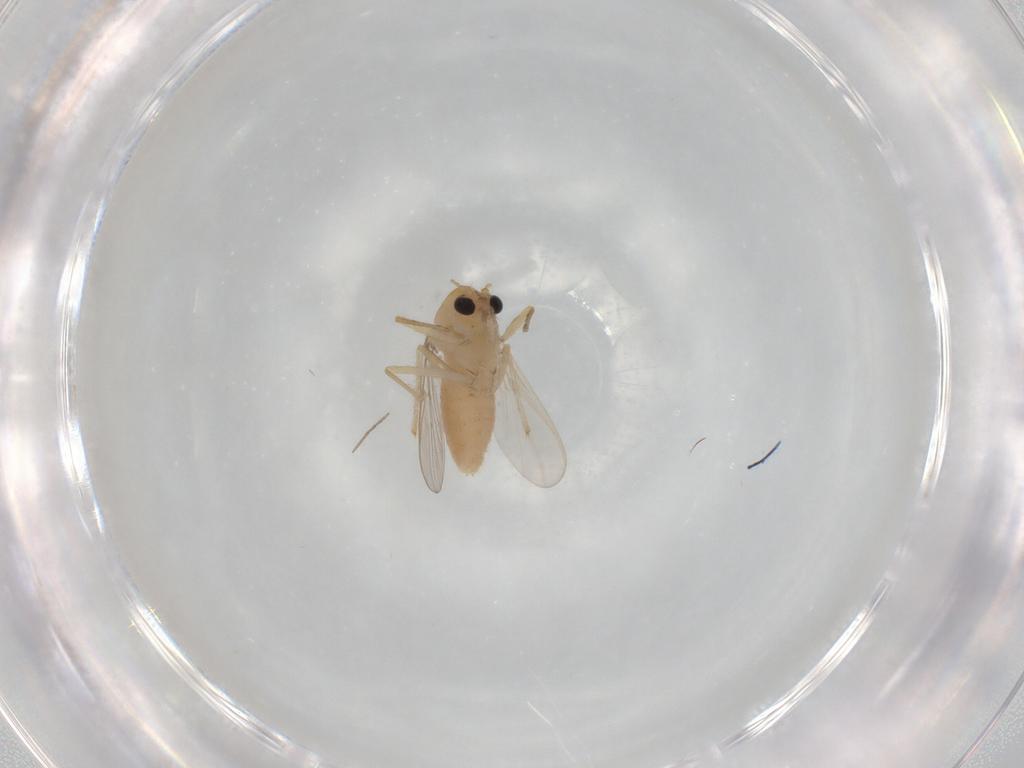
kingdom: Animalia
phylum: Arthropoda
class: Insecta
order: Diptera
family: Chironomidae
